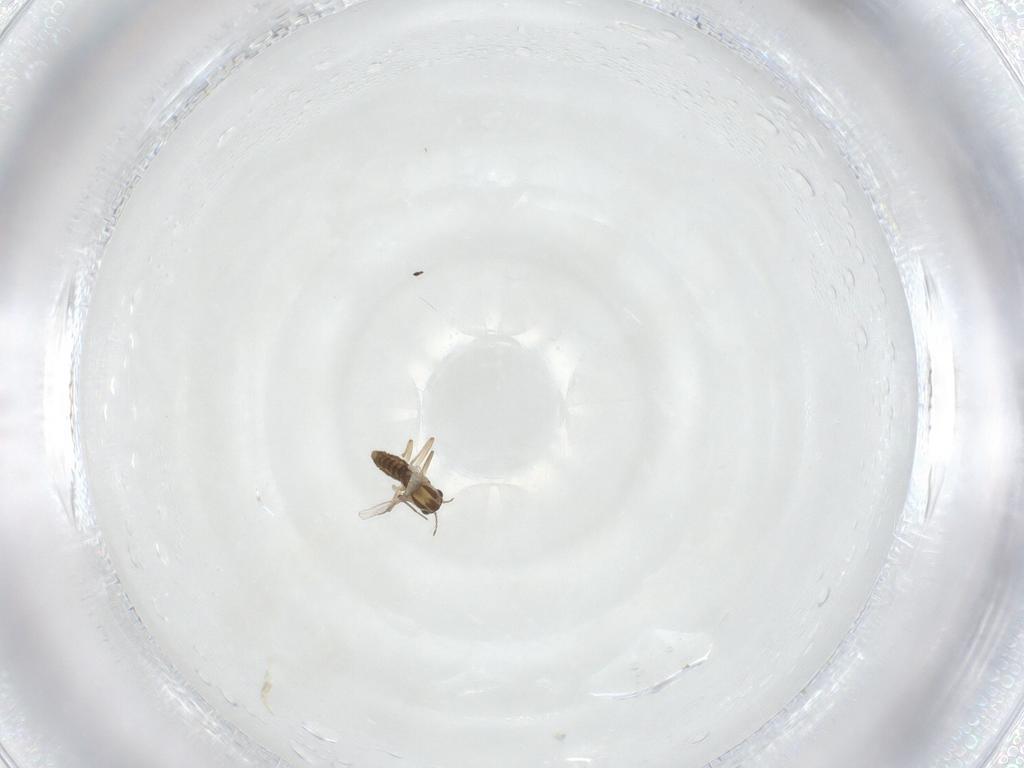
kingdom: Animalia
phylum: Arthropoda
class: Insecta
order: Diptera
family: Chironomidae
